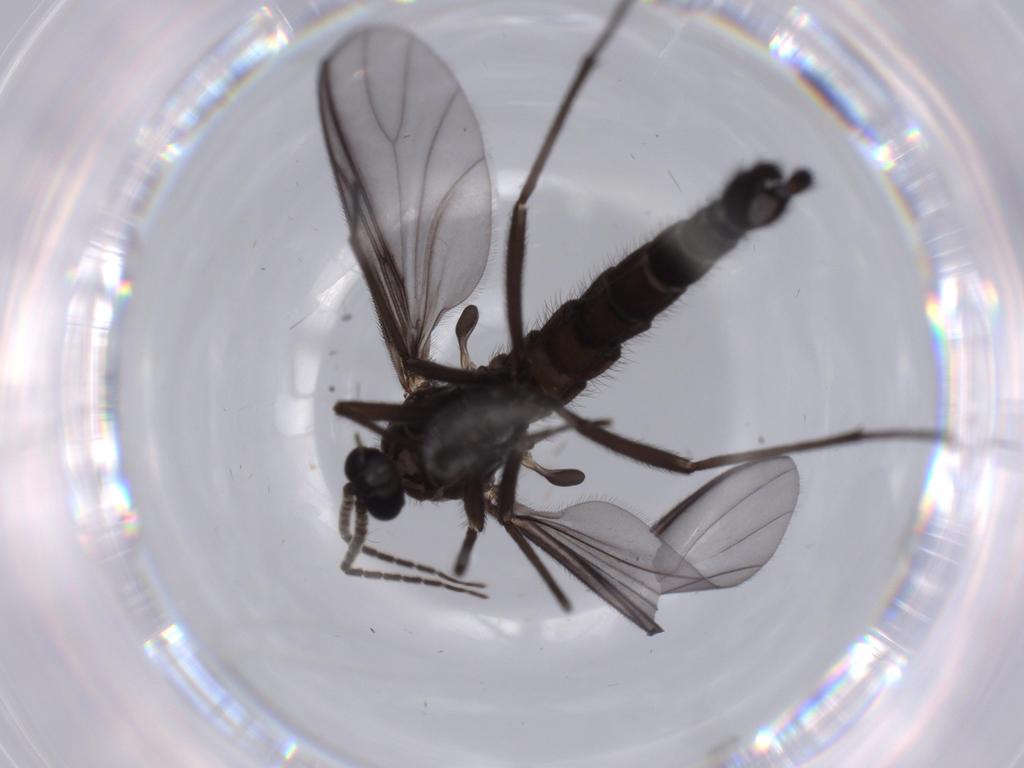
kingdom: Animalia
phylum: Arthropoda
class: Insecta
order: Diptera
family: Cecidomyiidae
